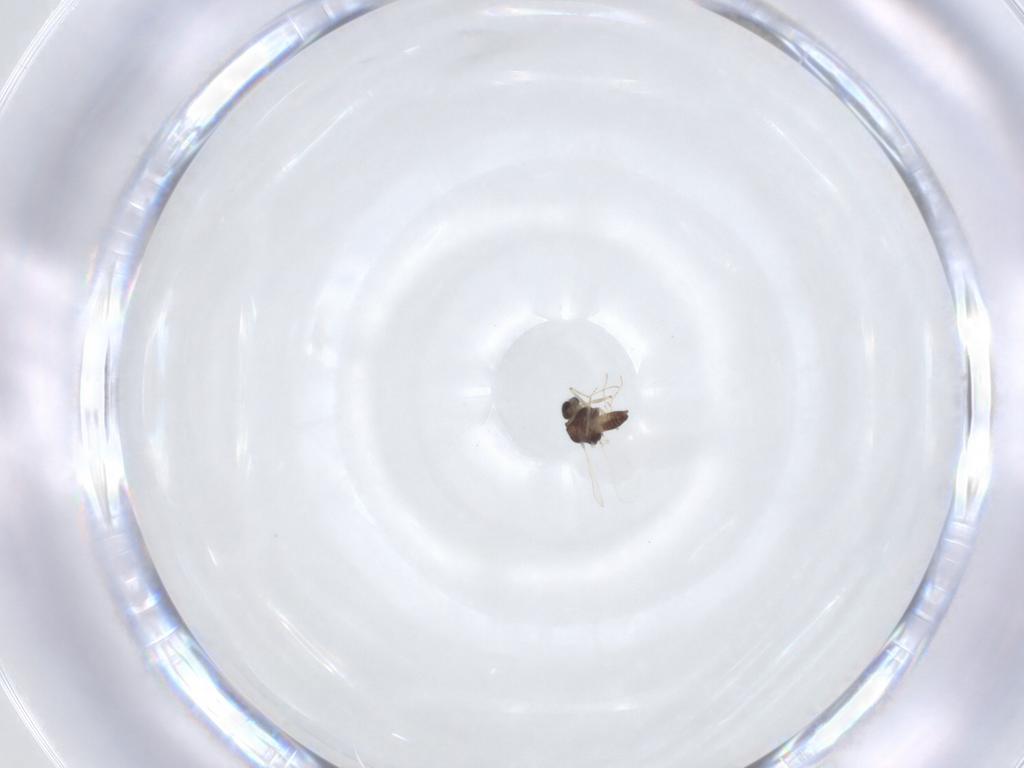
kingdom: Animalia
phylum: Arthropoda
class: Insecta
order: Diptera
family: Chironomidae
